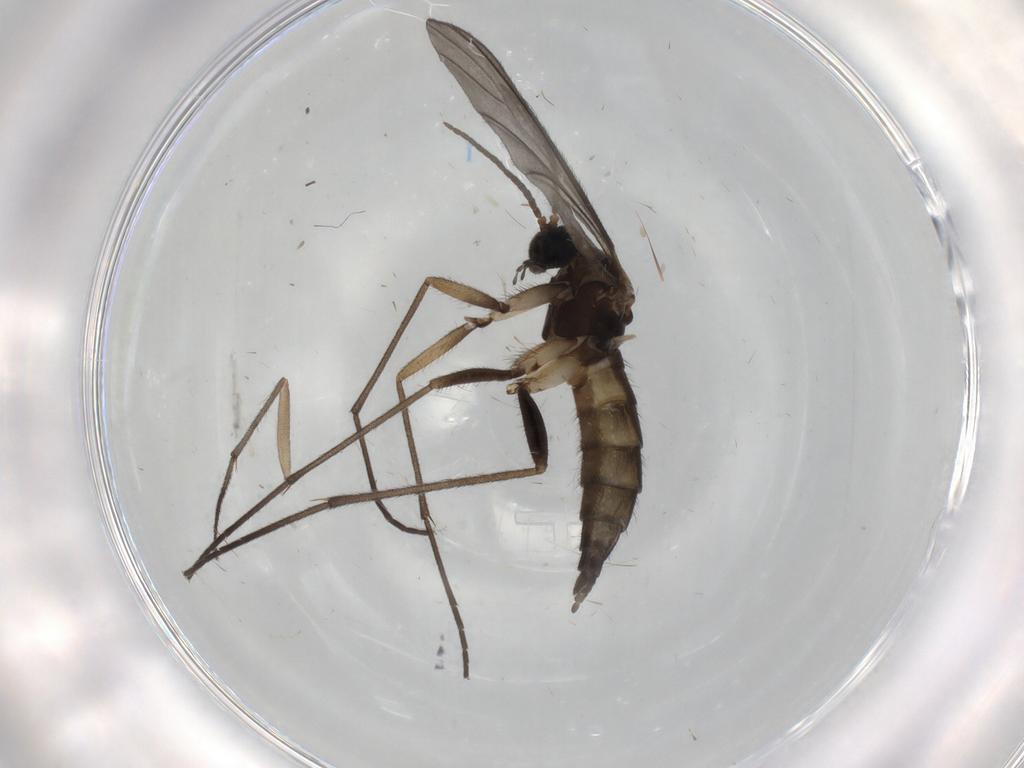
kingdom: Animalia
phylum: Arthropoda
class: Insecta
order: Diptera
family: Sciaridae
